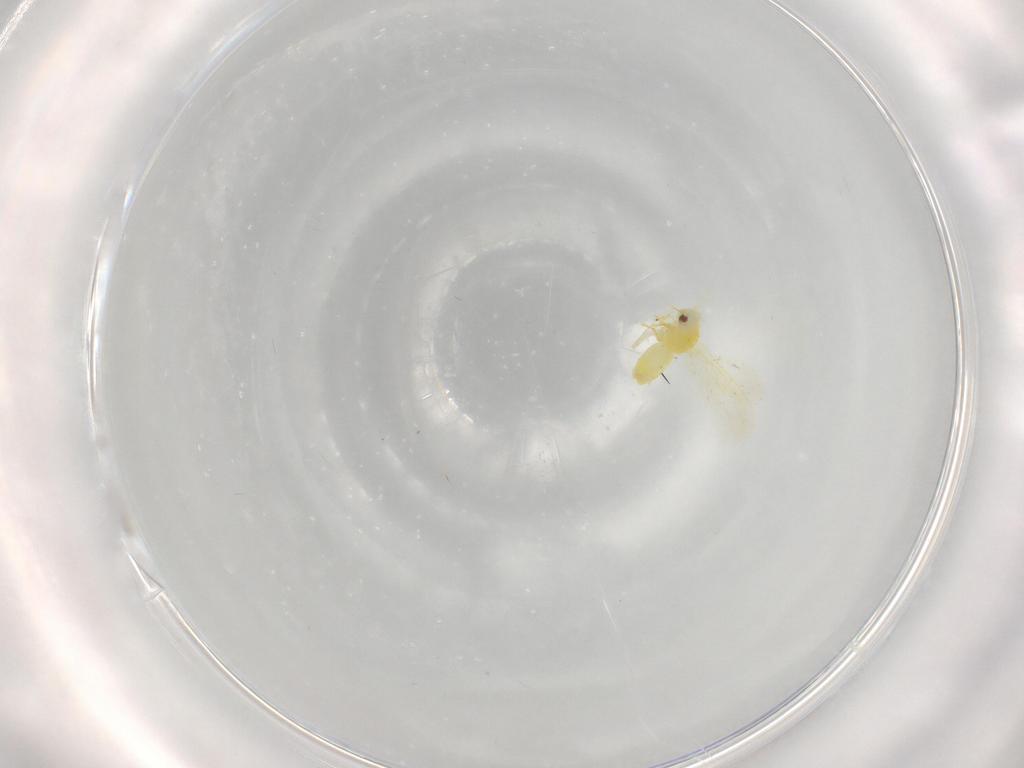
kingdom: Animalia
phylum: Arthropoda
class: Insecta
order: Hemiptera
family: Aleyrodidae
